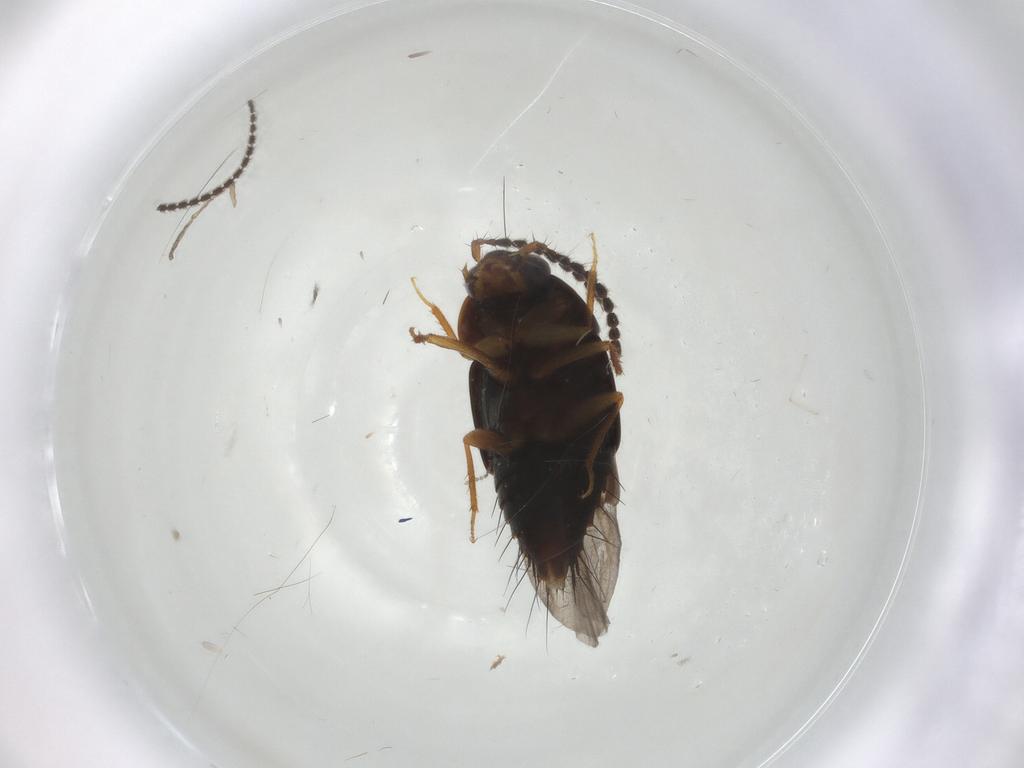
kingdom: Animalia
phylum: Arthropoda
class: Insecta
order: Coleoptera
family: Staphylinidae
